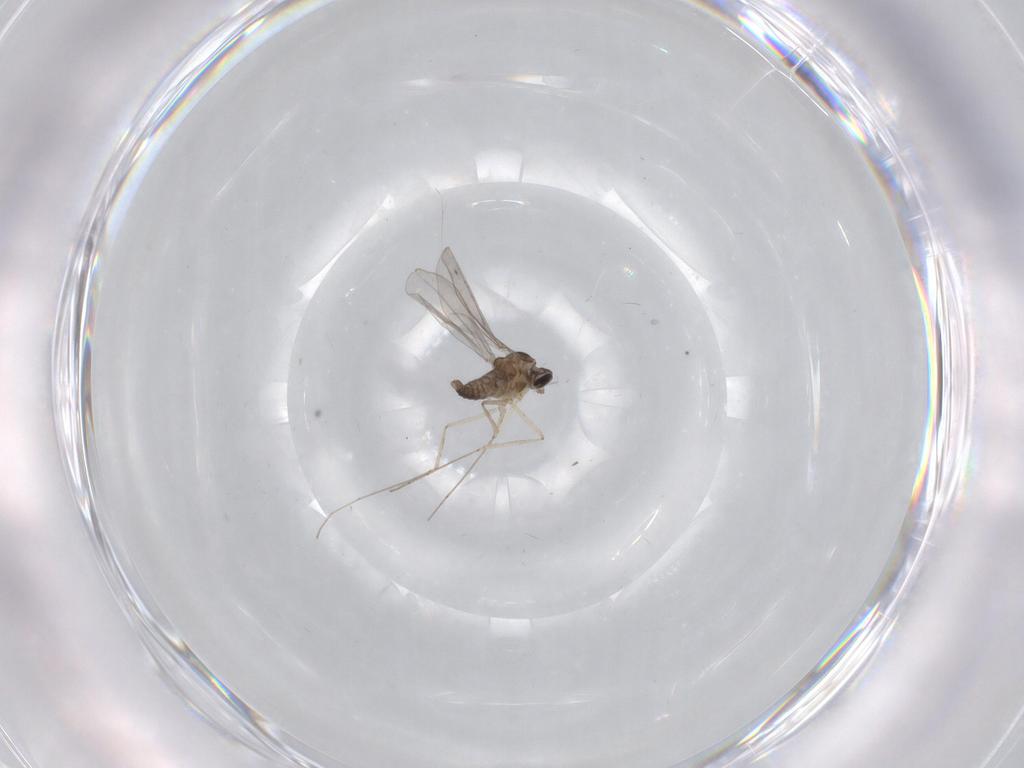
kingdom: Animalia
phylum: Arthropoda
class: Insecta
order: Diptera
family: Cecidomyiidae
